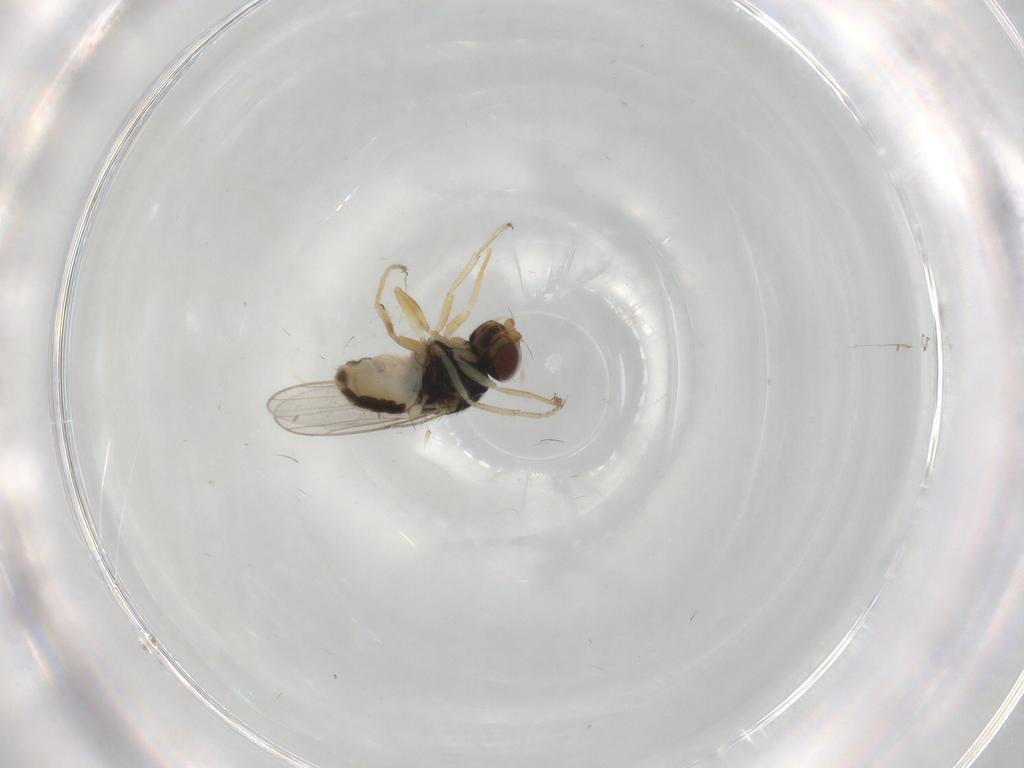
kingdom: Animalia
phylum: Arthropoda
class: Insecta
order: Diptera
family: Chloropidae
